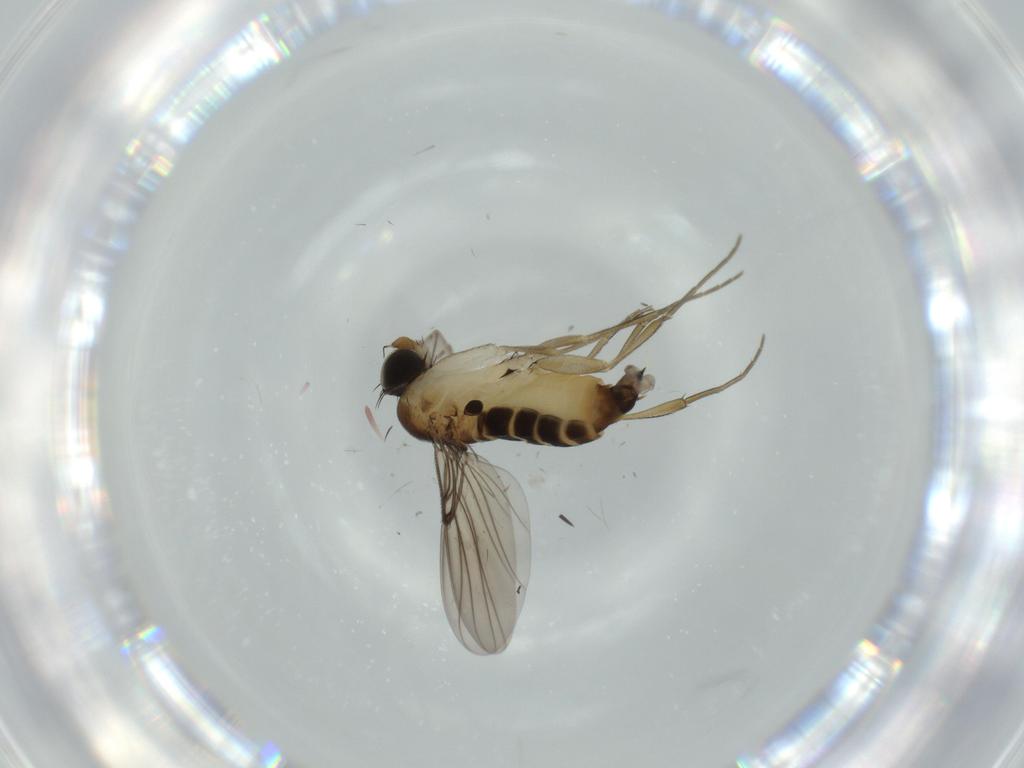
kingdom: Animalia
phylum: Arthropoda
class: Insecta
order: Diptera
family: Phoridae
